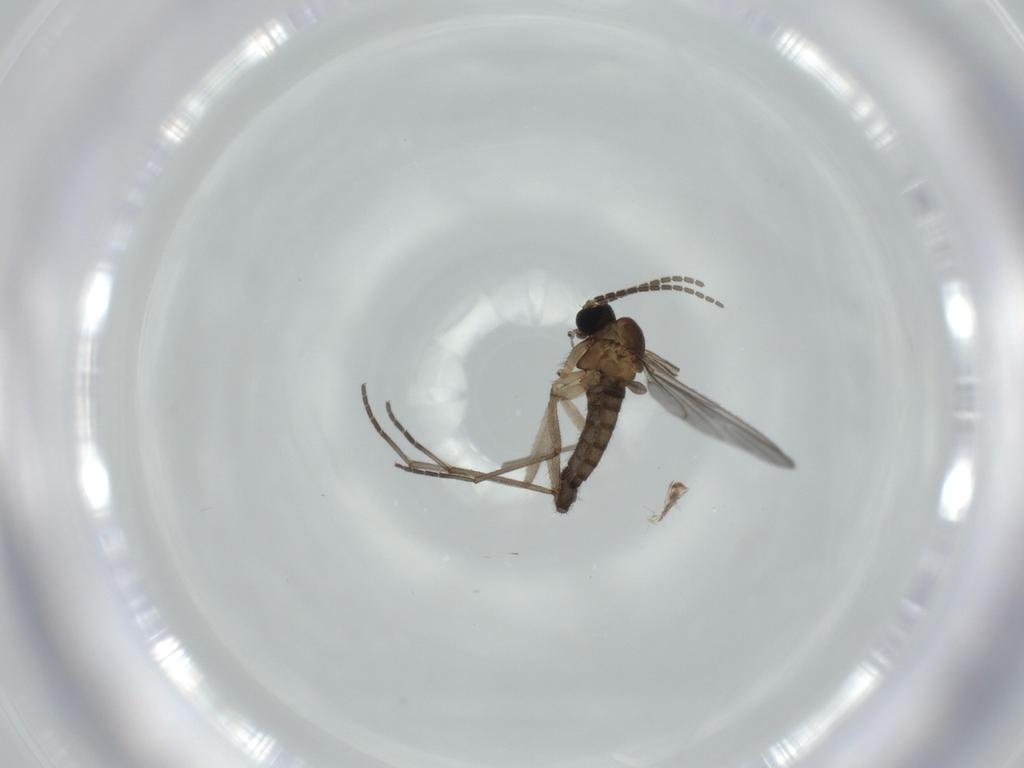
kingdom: Animalia
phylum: Arthropoda
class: Insecta
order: Diptera
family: Sciaridae
